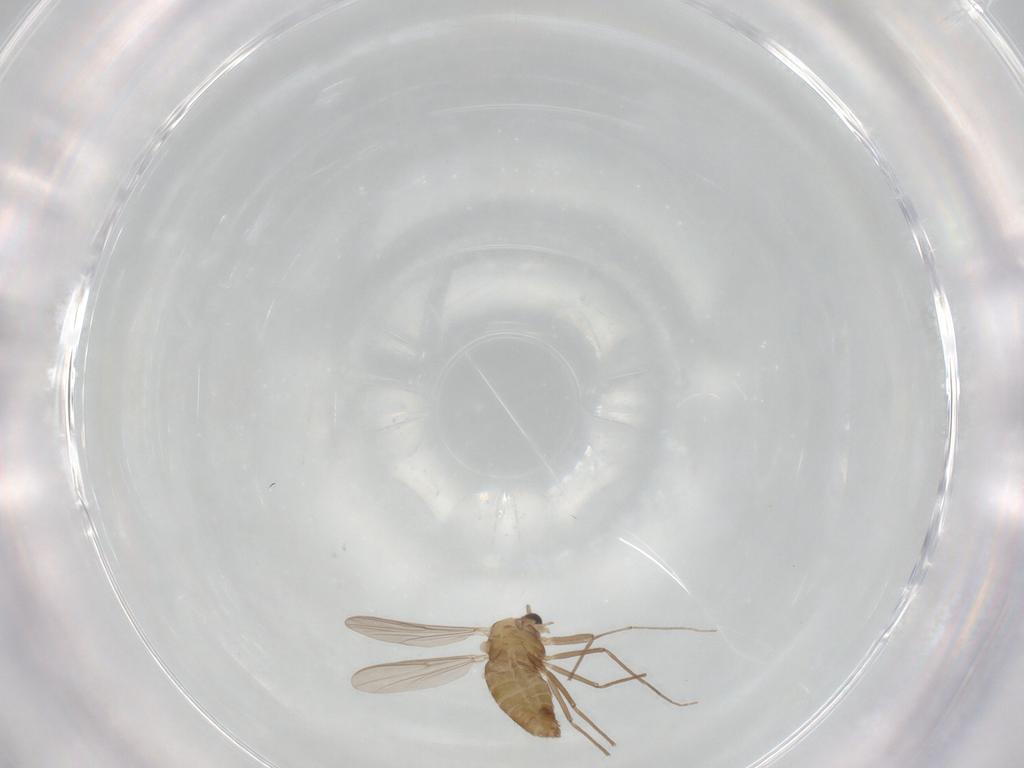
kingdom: Animalia
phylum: Arthropoda
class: Insecta
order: Diptera
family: Chironomidae
